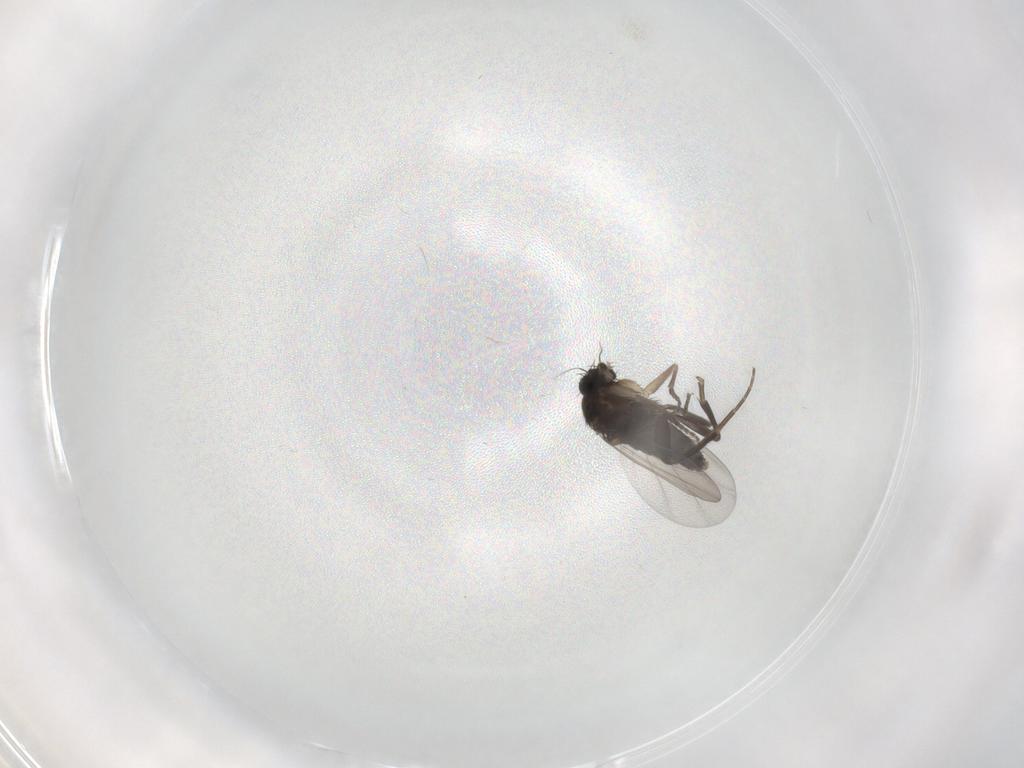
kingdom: Animalia
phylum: Arthropoda
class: Insecta
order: Diptera
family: Phoridae
